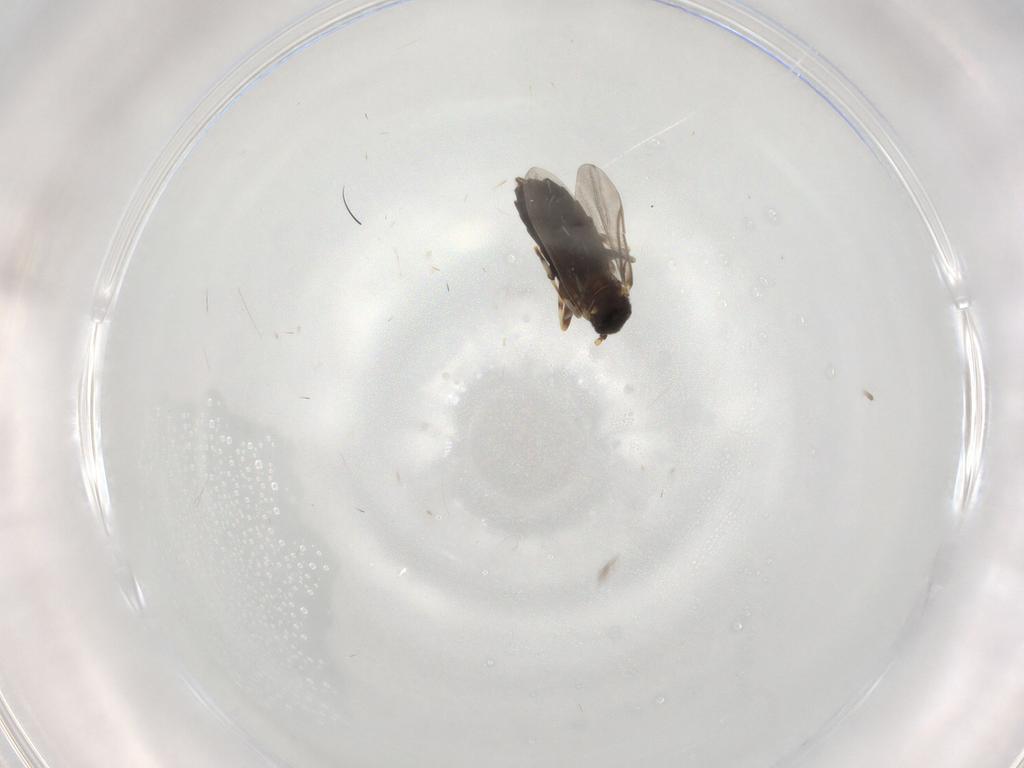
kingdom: Animalia
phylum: Arthropoda
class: Insecta
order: Diptera
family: Scatopsidae
